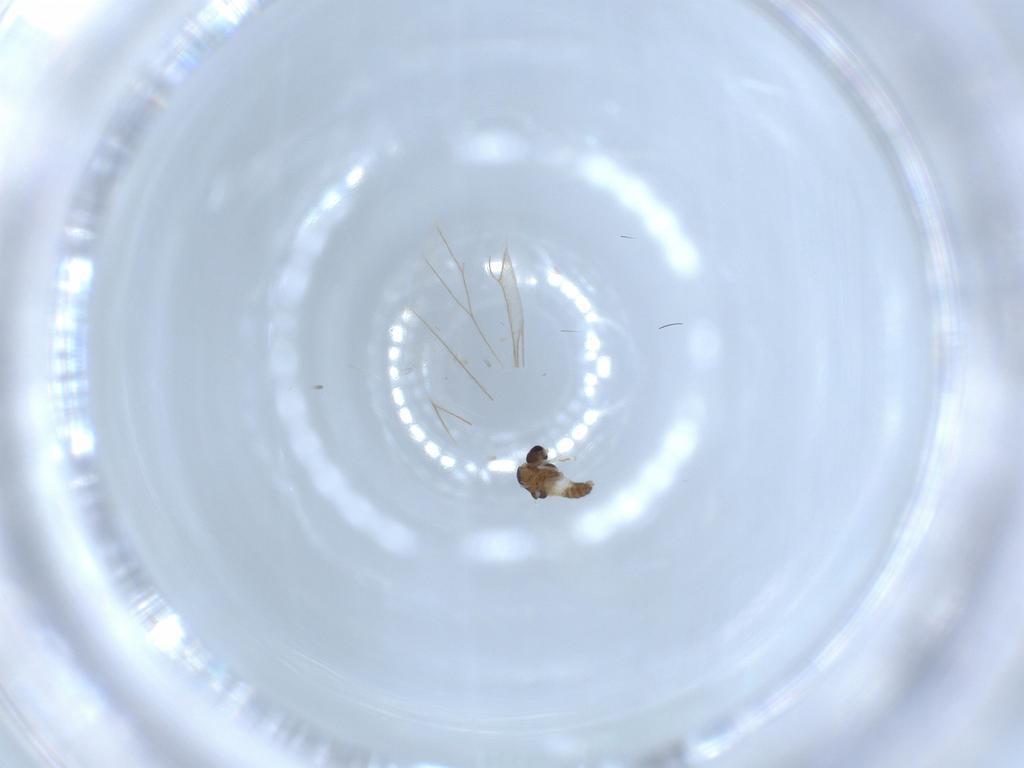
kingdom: Animalia
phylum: Arthropoda
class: Insecta
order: Diptera
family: Chironomidae
